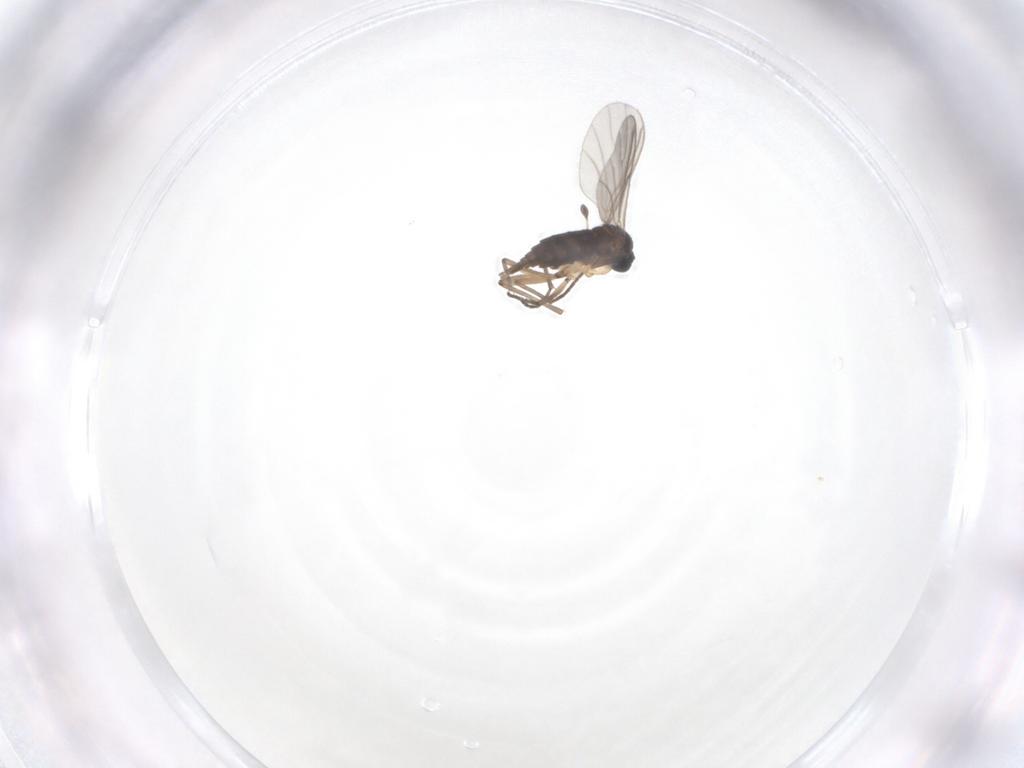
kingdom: Animalia
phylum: Arthropoda
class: Insecta
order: Diptera
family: Sciaridae
